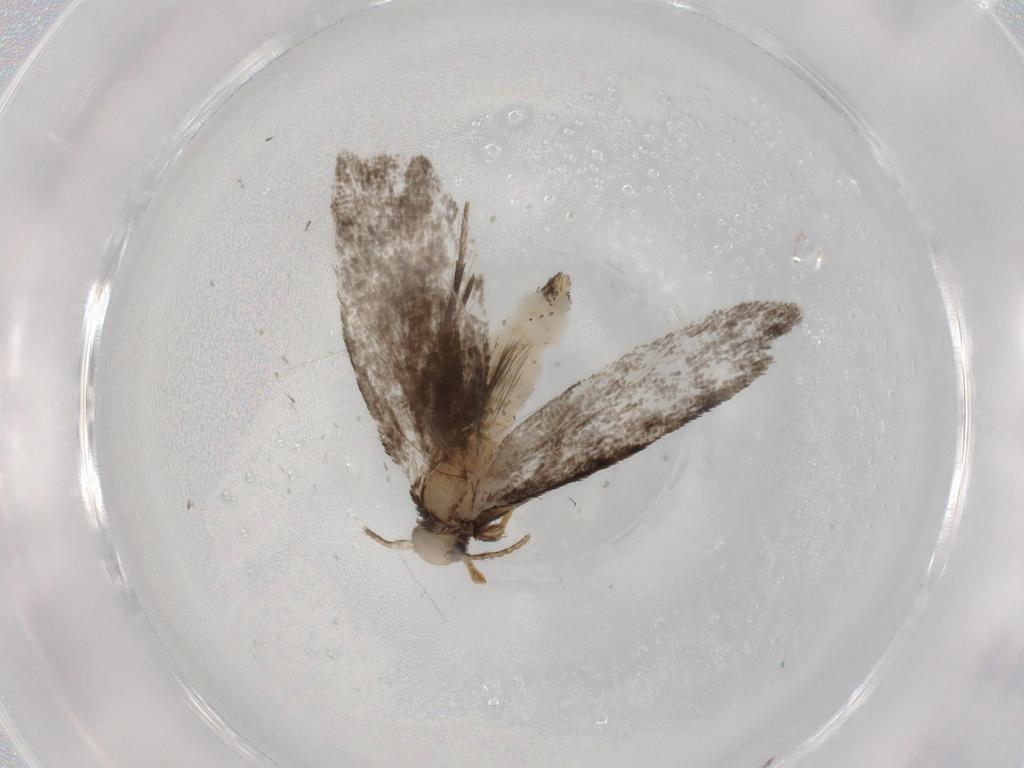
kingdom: Animalia
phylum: Arthropoda
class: Insecta
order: Lepidoptera
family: Psychidae
